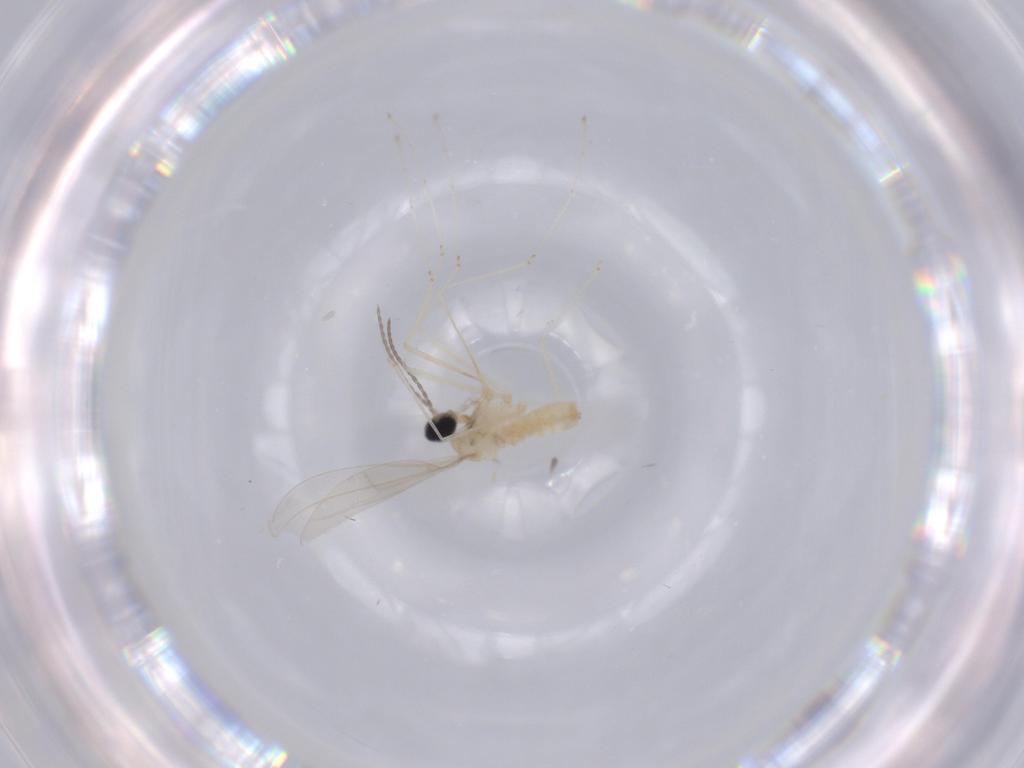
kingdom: Animalia
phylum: Arthropoda
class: Insecta
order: Diptera
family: Cecidomyiidae
